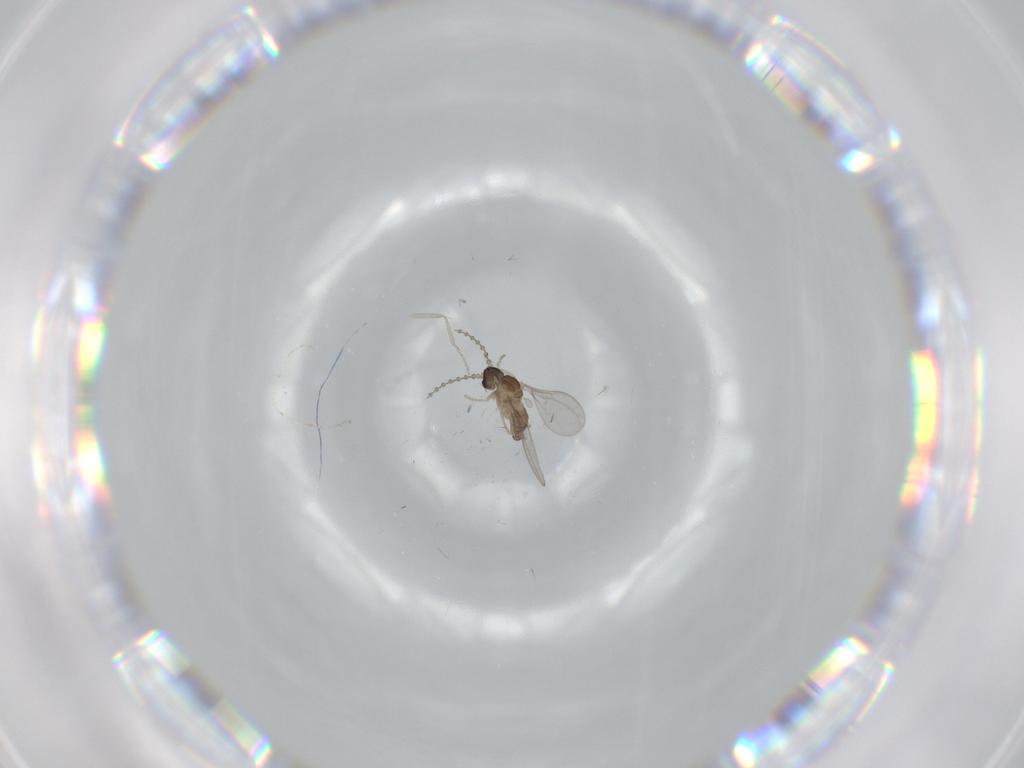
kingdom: Animalia
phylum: Arthropoda
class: Insecta
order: Diptera
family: Cecidomyiidae
